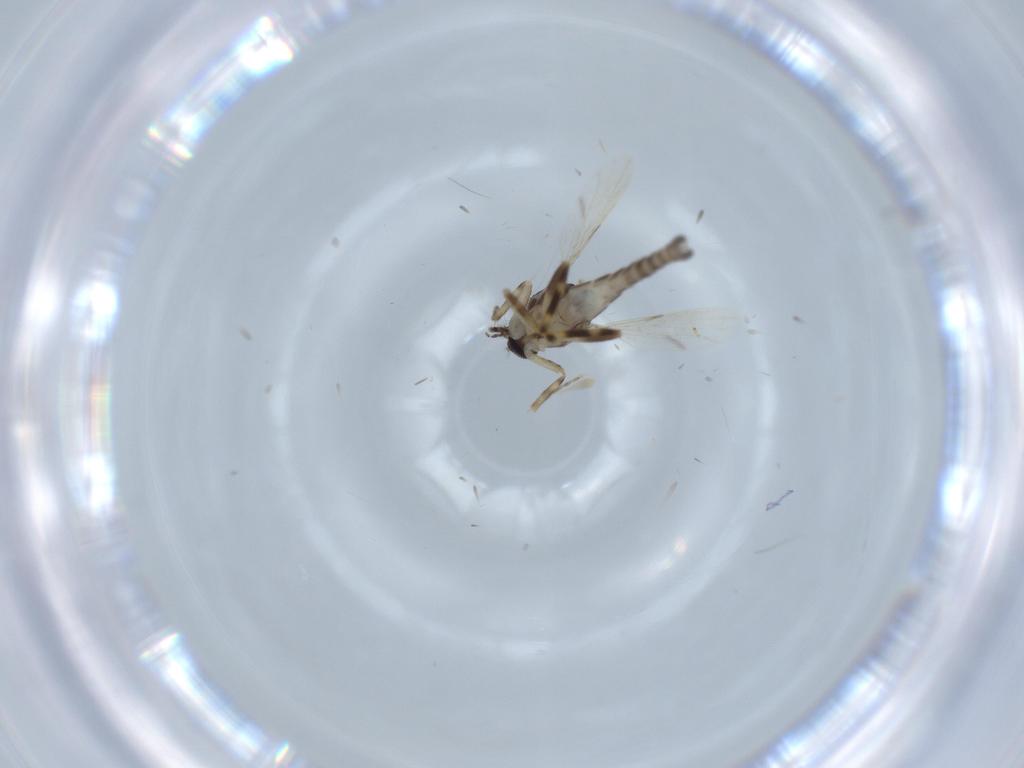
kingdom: Animalia
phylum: Arthropoda
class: Insecta
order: Diptera
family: Ceratopogonidae
